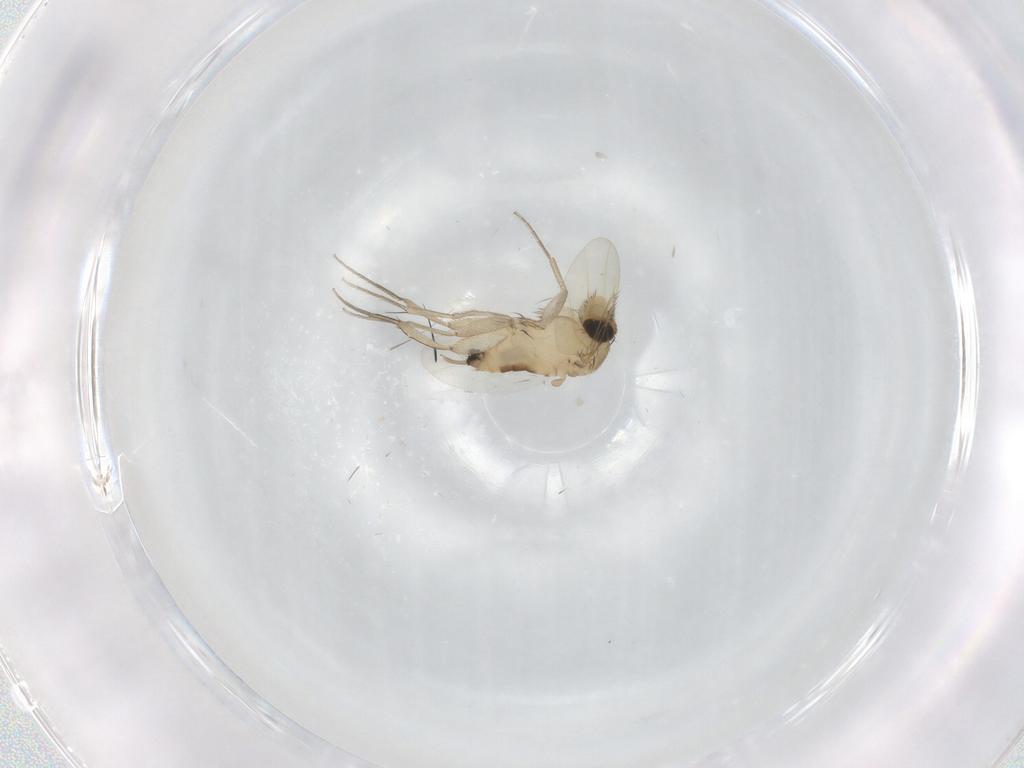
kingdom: Animalia
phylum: Arthropoda
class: Insecta
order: Diptera
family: Phoridae
